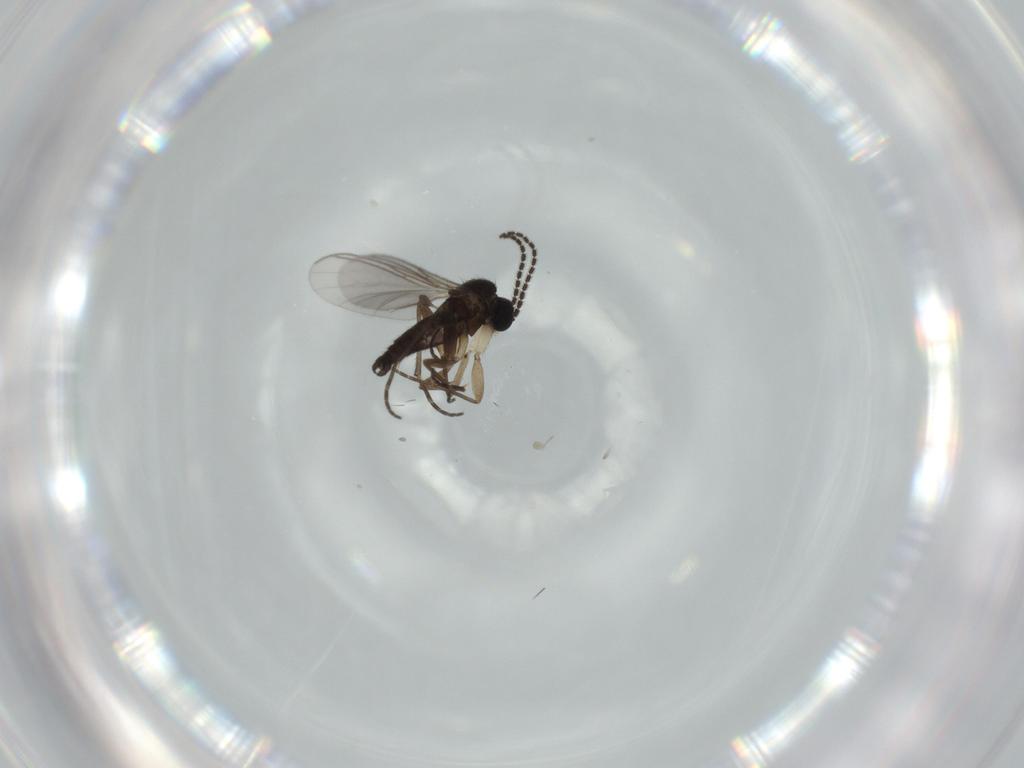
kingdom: Animalia
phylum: Arthropoda
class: Insecta
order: Diptera
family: Sciaridae
